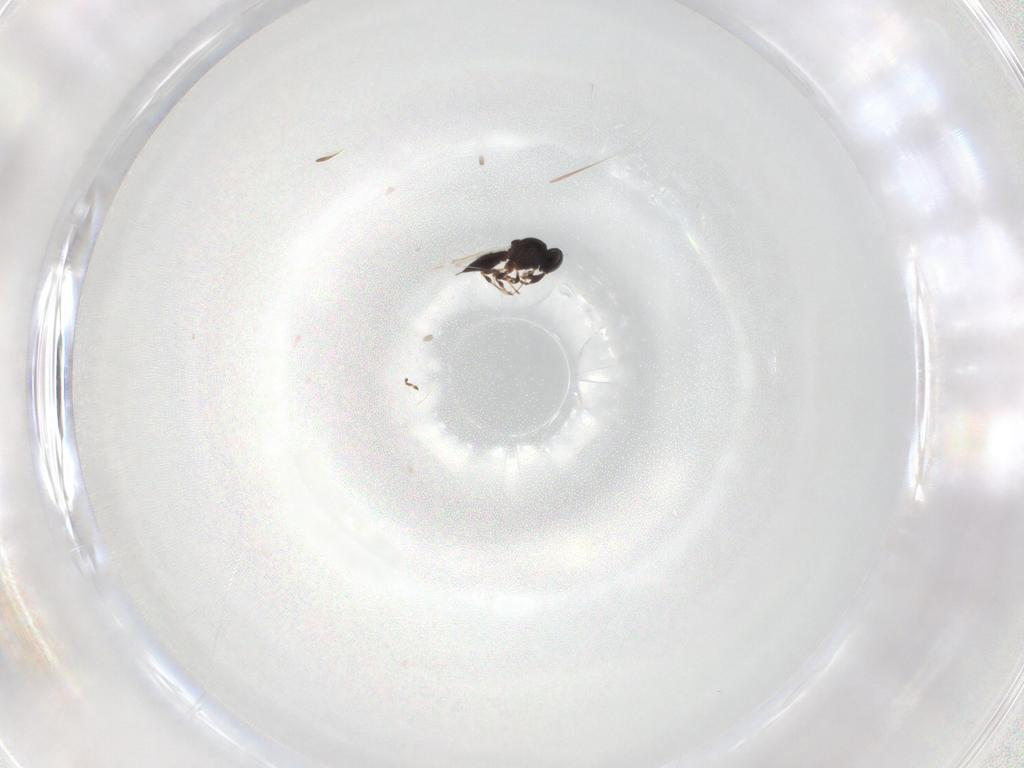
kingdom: Animalia
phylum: Arthropoda
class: Insecta
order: Hymenoptera
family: Platygastridae
